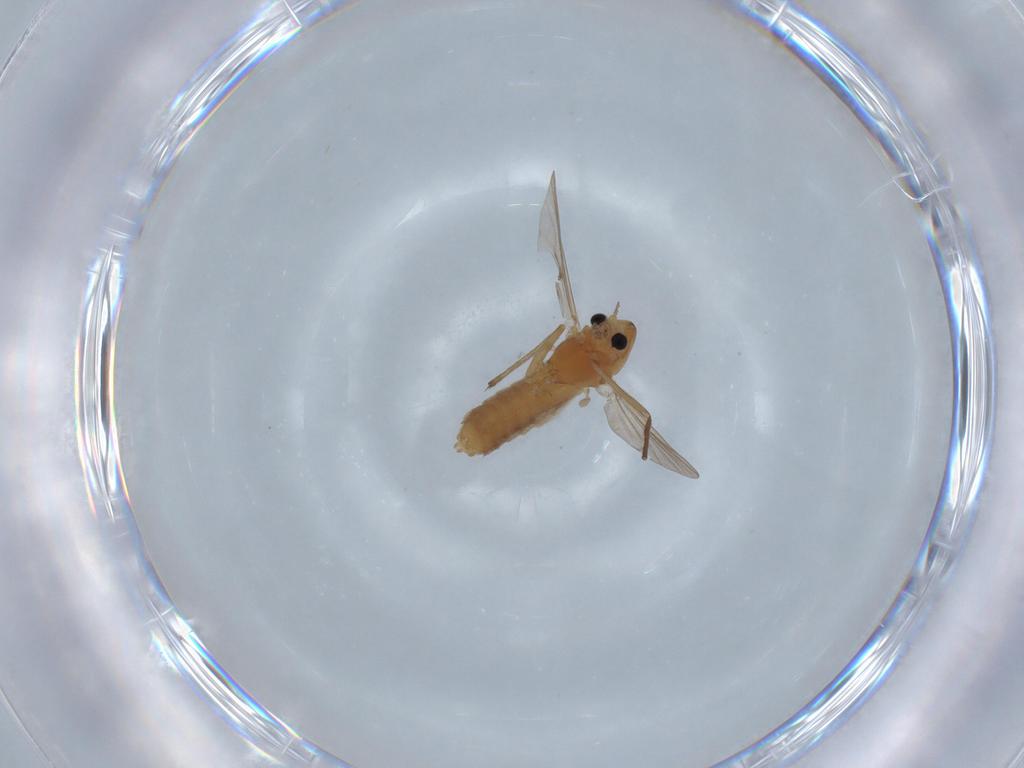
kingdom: Animalia
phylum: Arthropoda
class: Insecta
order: Diptera
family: Chironomidae
